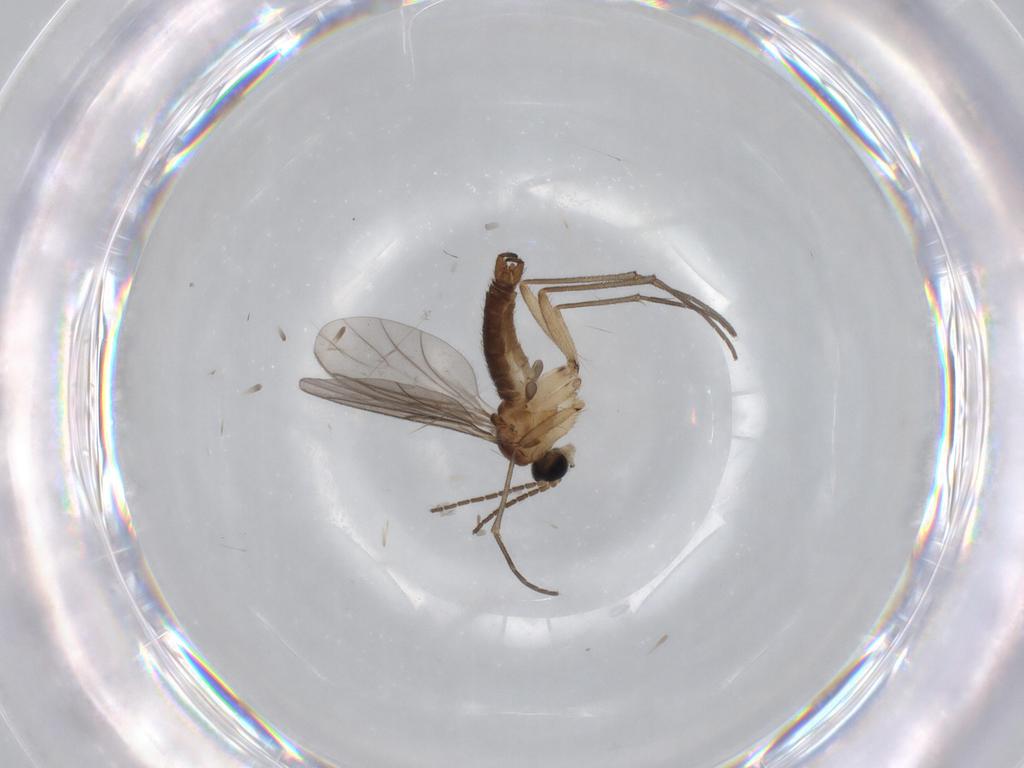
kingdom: Animalia
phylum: Arthropoda
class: Insecta
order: Diptera
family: Sciaridae
